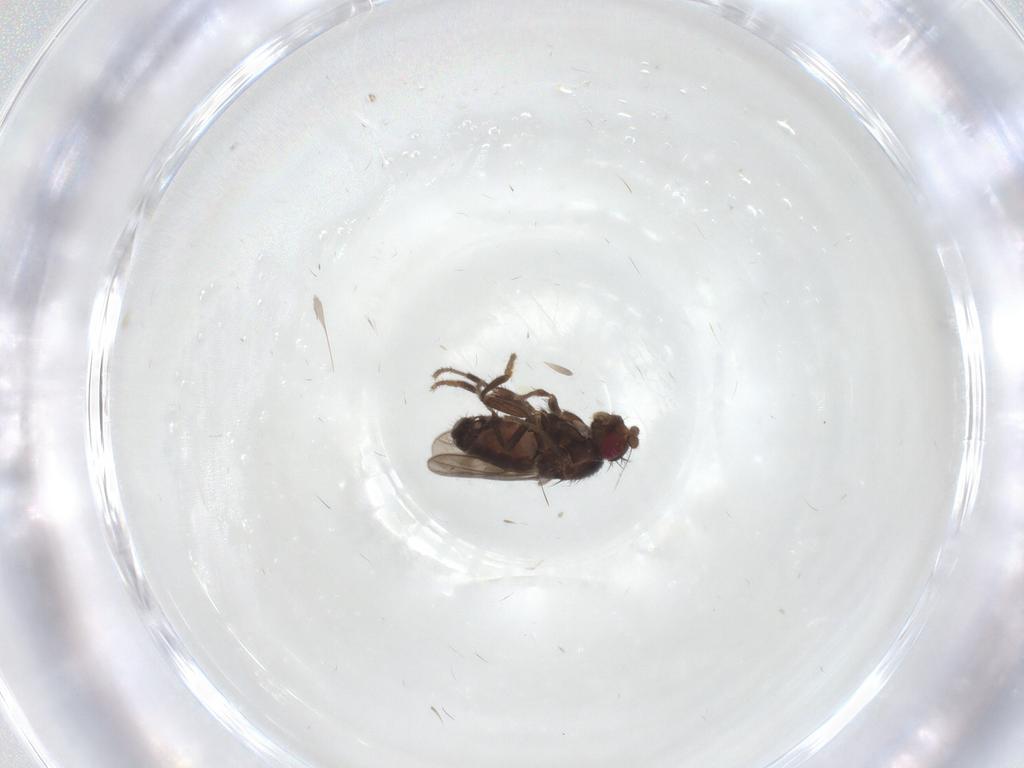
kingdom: Animalia
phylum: Arthropoda
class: Insecta
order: Diptera
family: Sphaeroceridae
